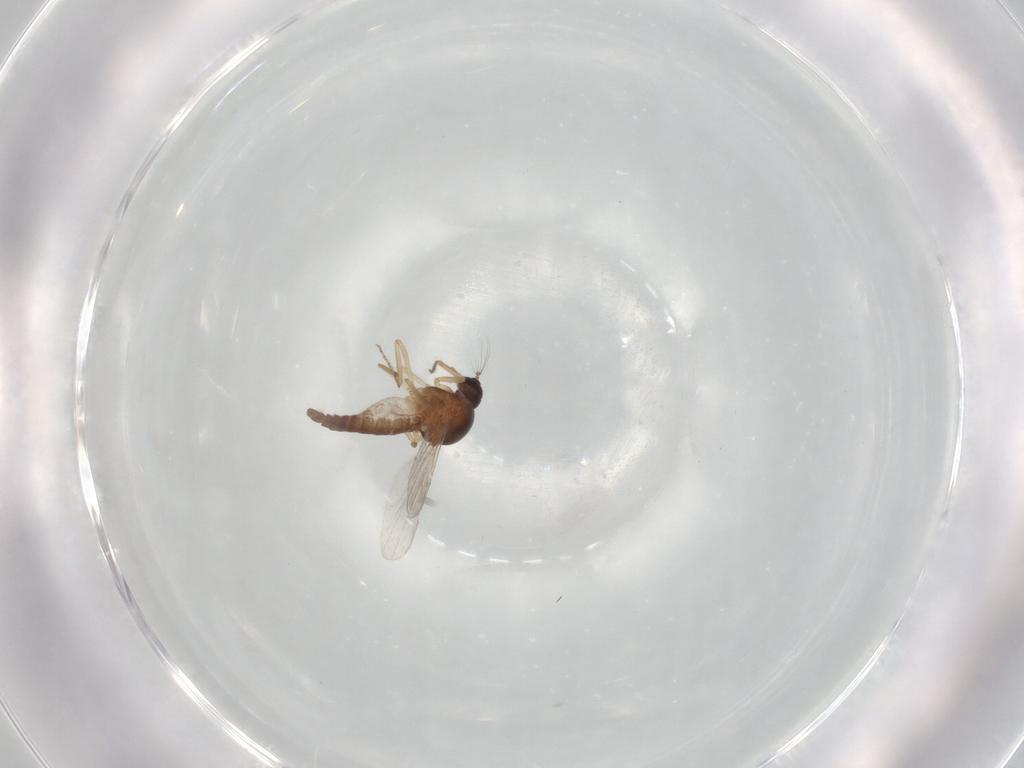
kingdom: Animalia
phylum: Arthropoda
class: Insecta
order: Diptera
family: Ceratopogonidae
